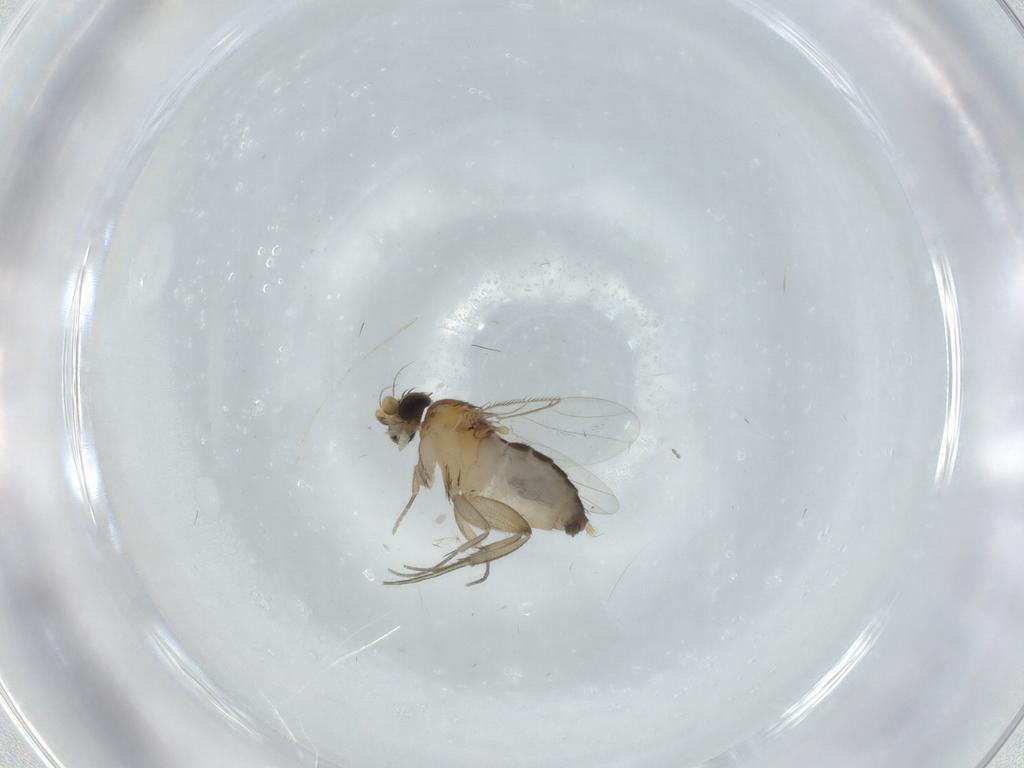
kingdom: Animalia
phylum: Arthropoda
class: Insecta
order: Diptera
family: Phoridae
